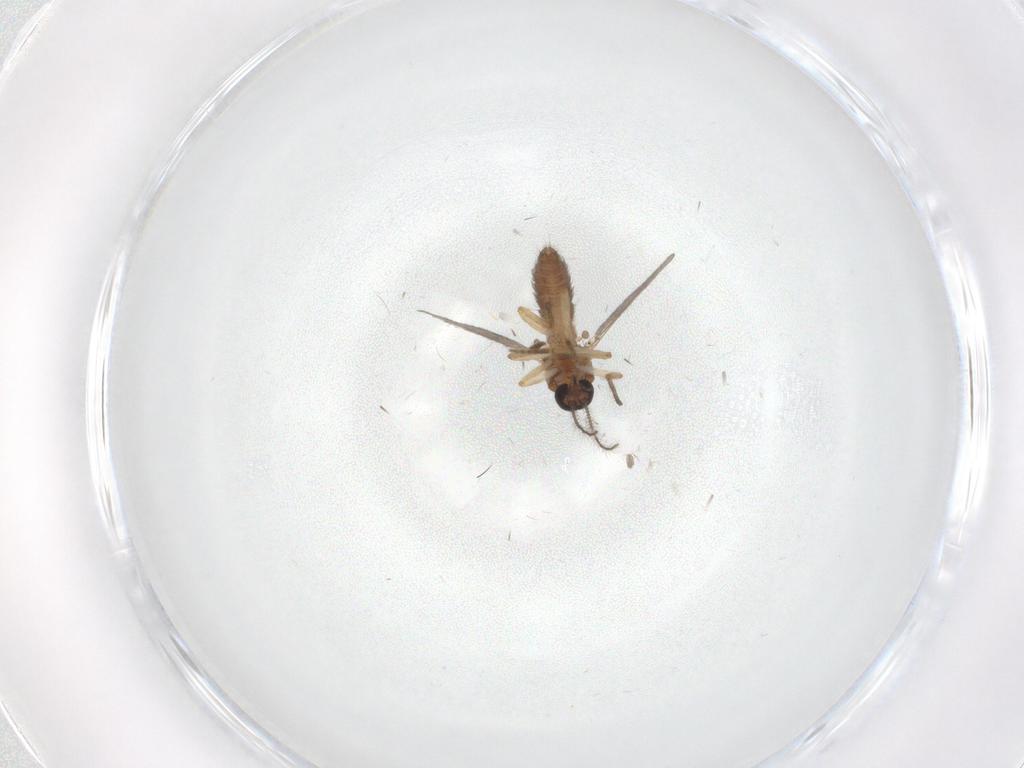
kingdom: Animalia
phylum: Arthropoda
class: Insecta
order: Diptera
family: Ceratopogonidae
